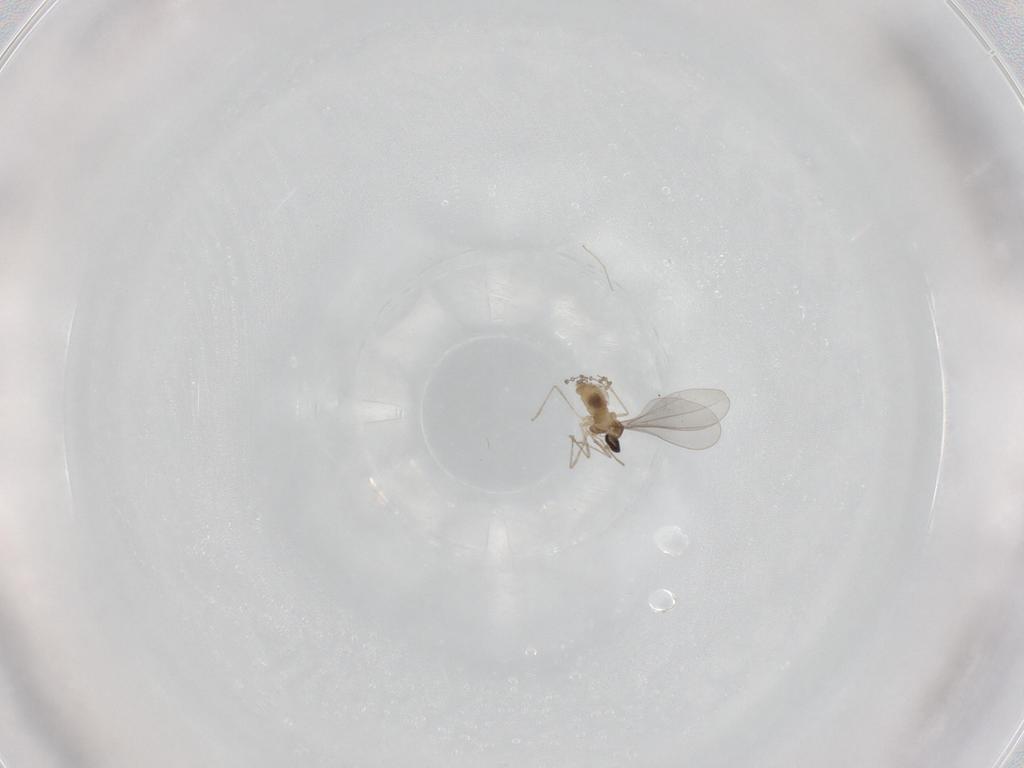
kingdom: Animalia
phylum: Arthropoda
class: Insecta
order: Diptera
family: Cecidomyiidae
